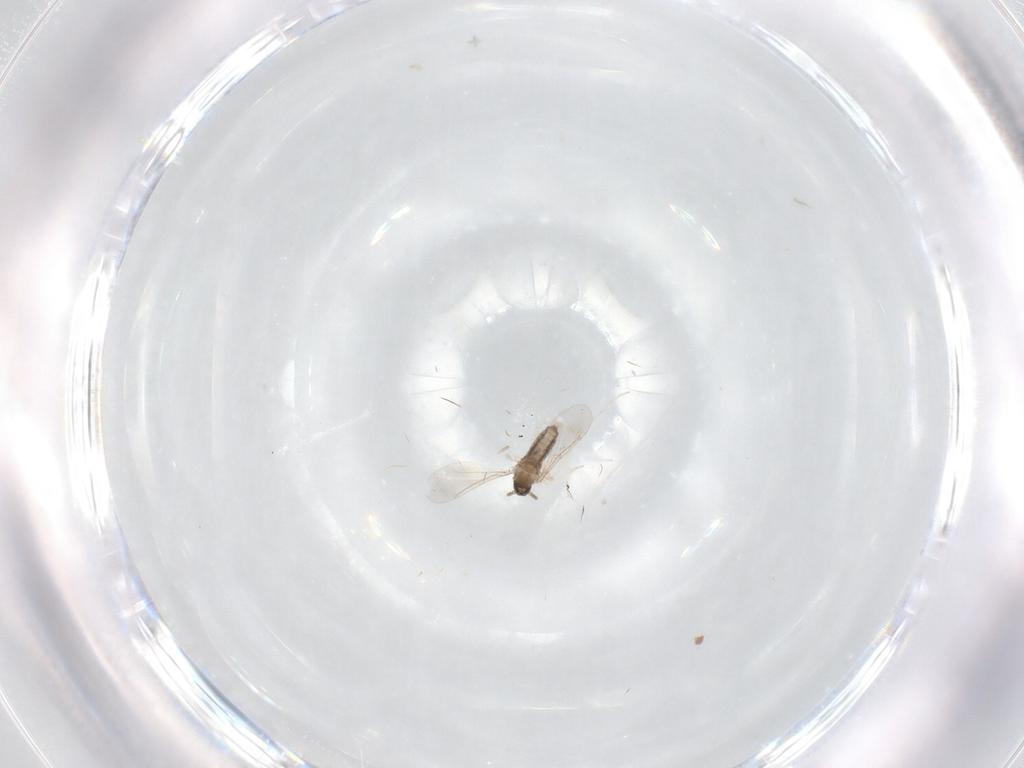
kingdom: Animalia
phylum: Arthropoda
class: Insecta
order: Diptera
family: Cecidomyiidae
